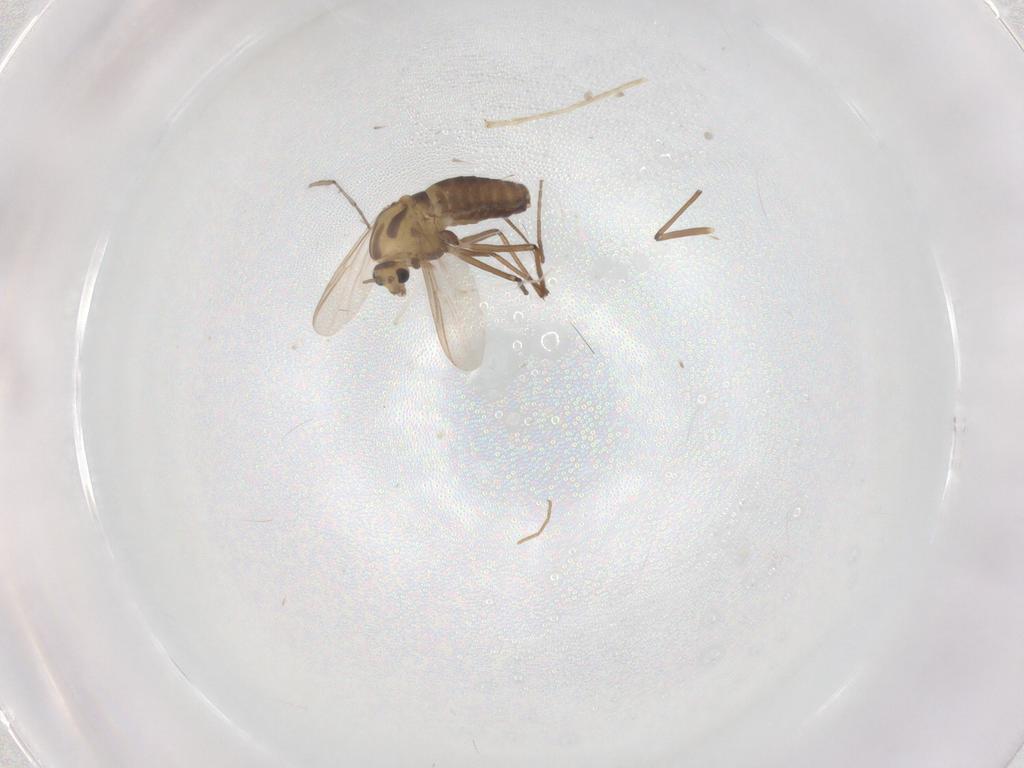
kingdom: Animalia
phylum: Arthropoda
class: Insecta
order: Diptera
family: Chironomidae
